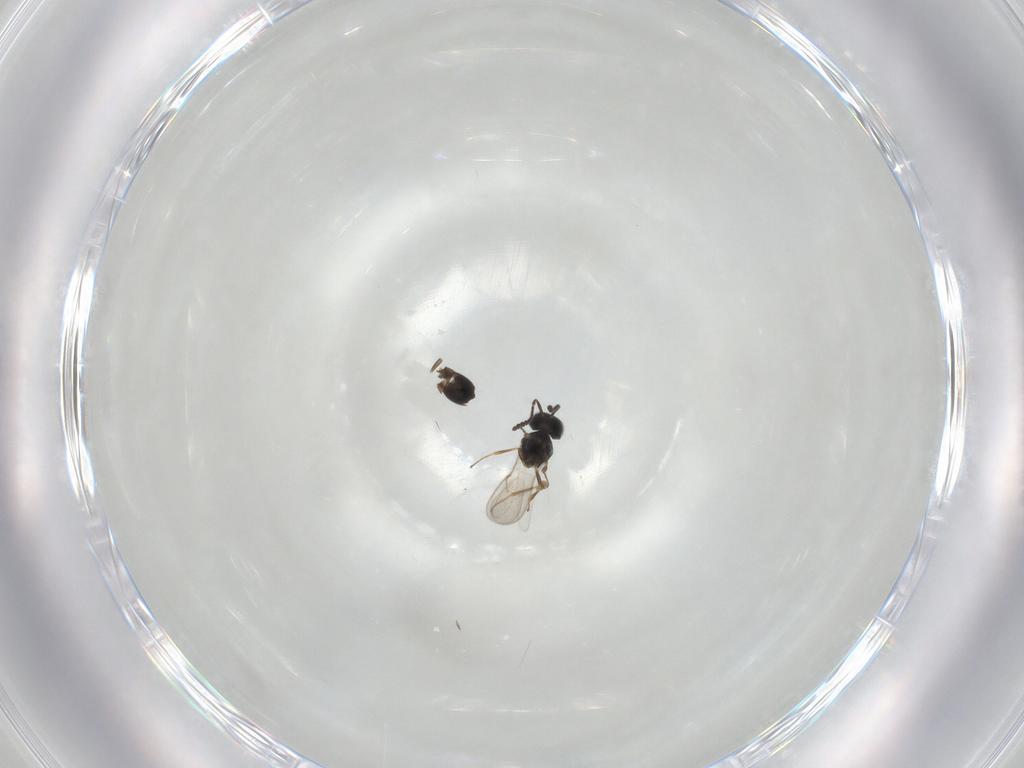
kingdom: Animalia
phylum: Arthropoda
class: Insecta
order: Hymenoptera
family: Scelionidae
